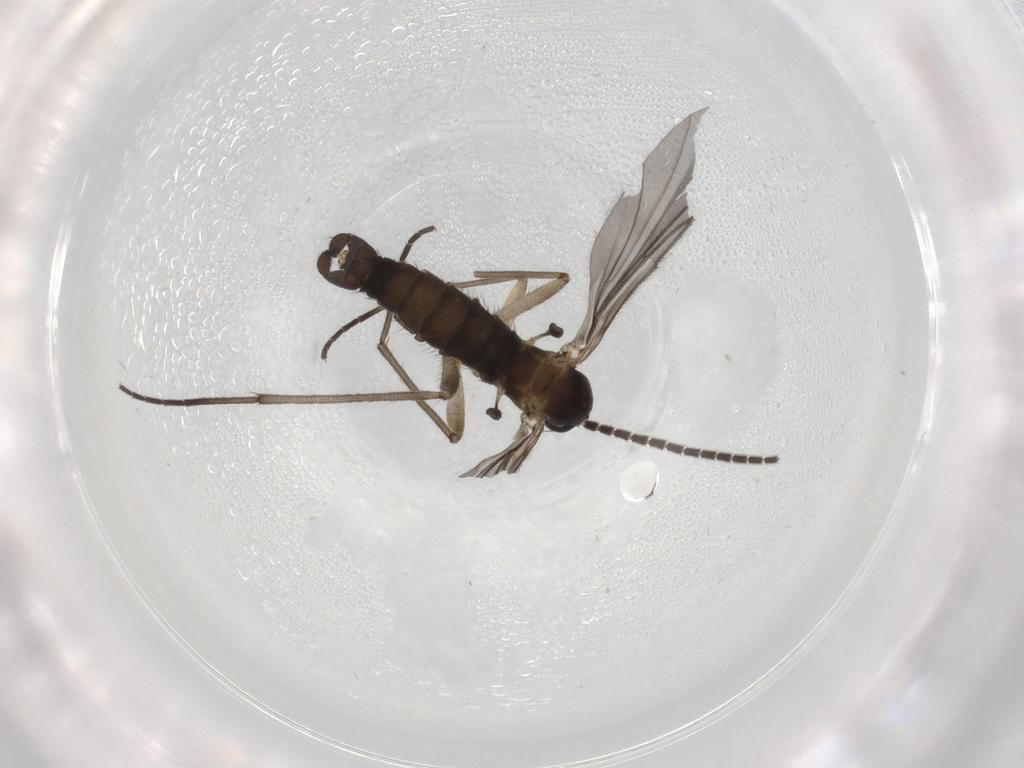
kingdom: Animalia
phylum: Arthropoda
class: Insecta
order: Diptera
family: Sciaridae
